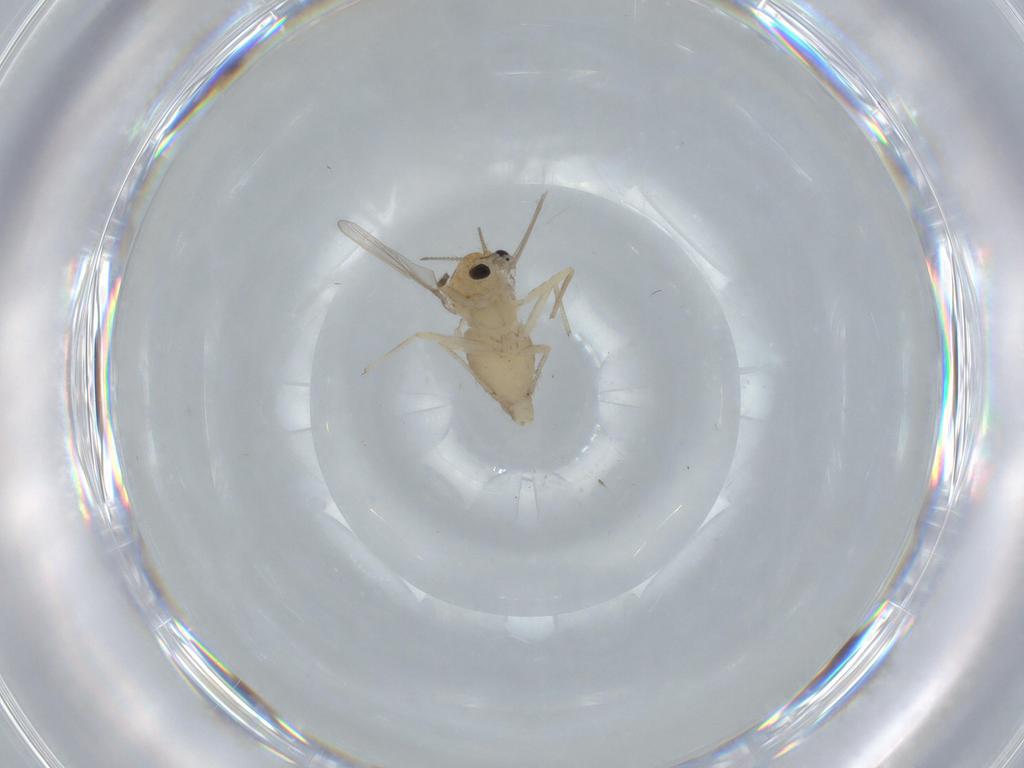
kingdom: Animalia
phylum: Arthropoda
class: Insecta
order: Diptera
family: Chironomidae
